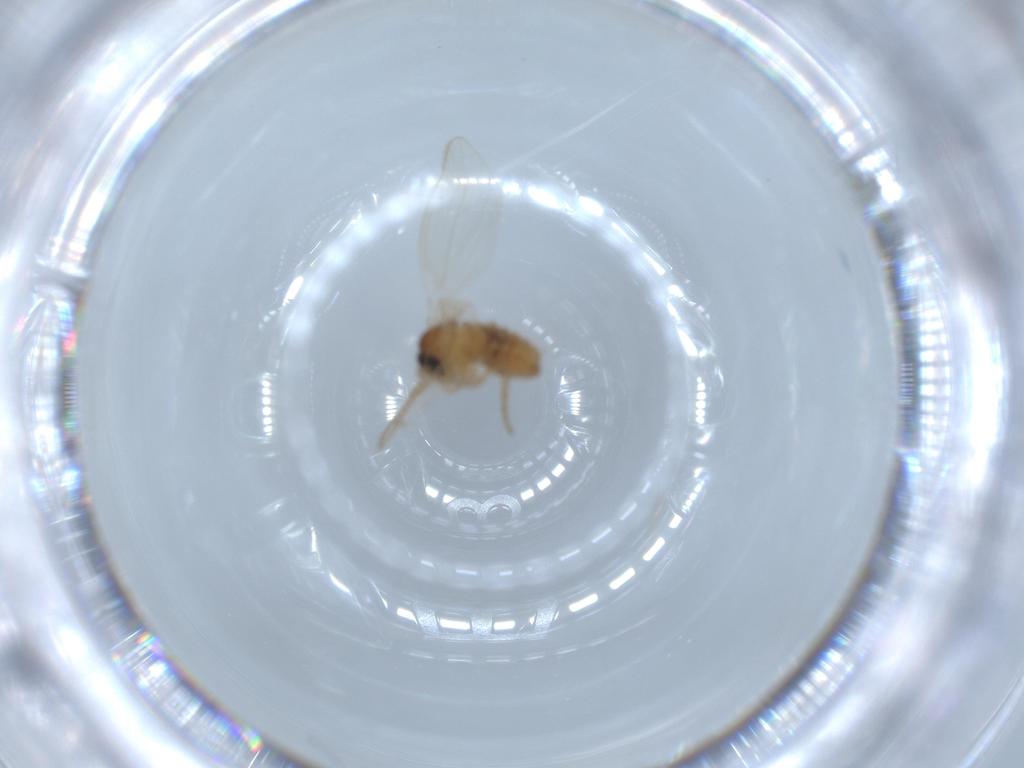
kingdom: Animalia
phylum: Arthropoda
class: Insecta
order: Diptera
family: Psychodidae
